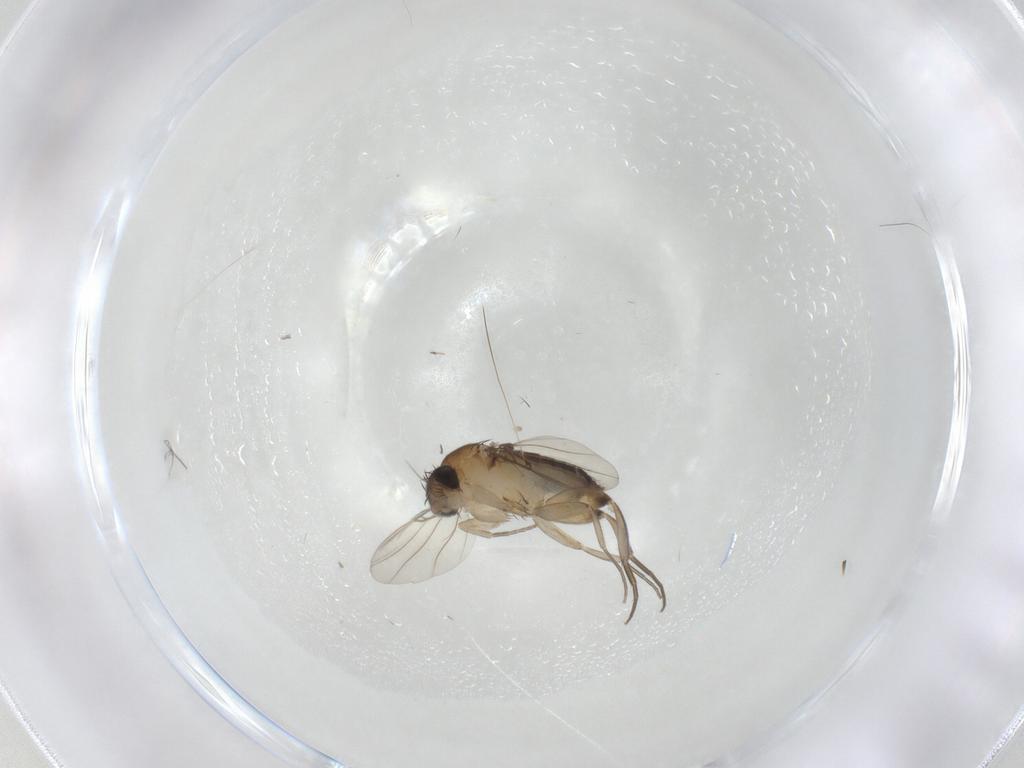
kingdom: Animalia
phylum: Arthropoda
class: Insecta
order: Diptera
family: Phoridae
